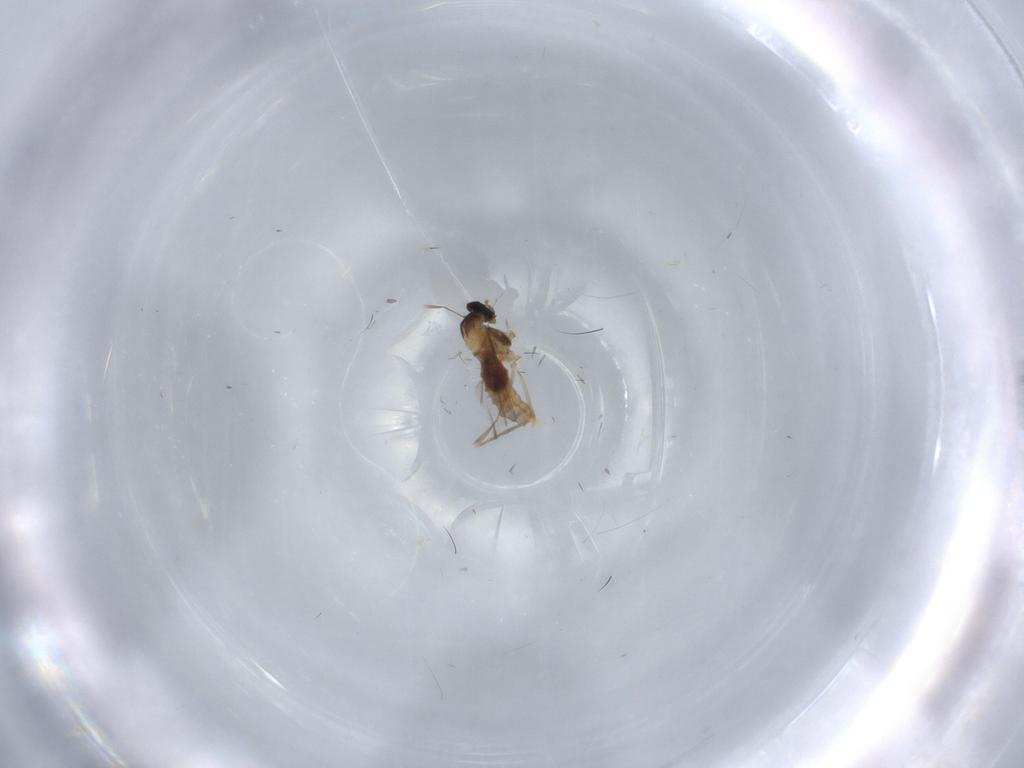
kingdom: Animalia
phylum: Arthropoda
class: Insecta
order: Diptera
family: Cecidomyiidae
